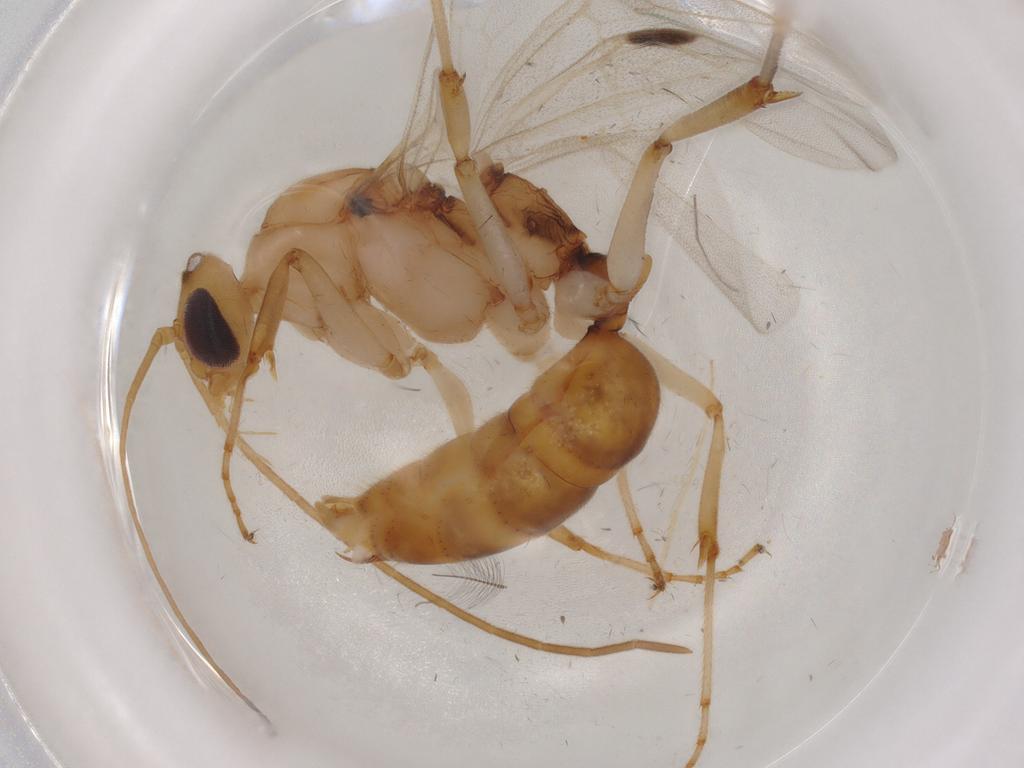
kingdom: Animalia
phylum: Arthropoda
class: Insecta
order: Hymenoptera
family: Formicidae
